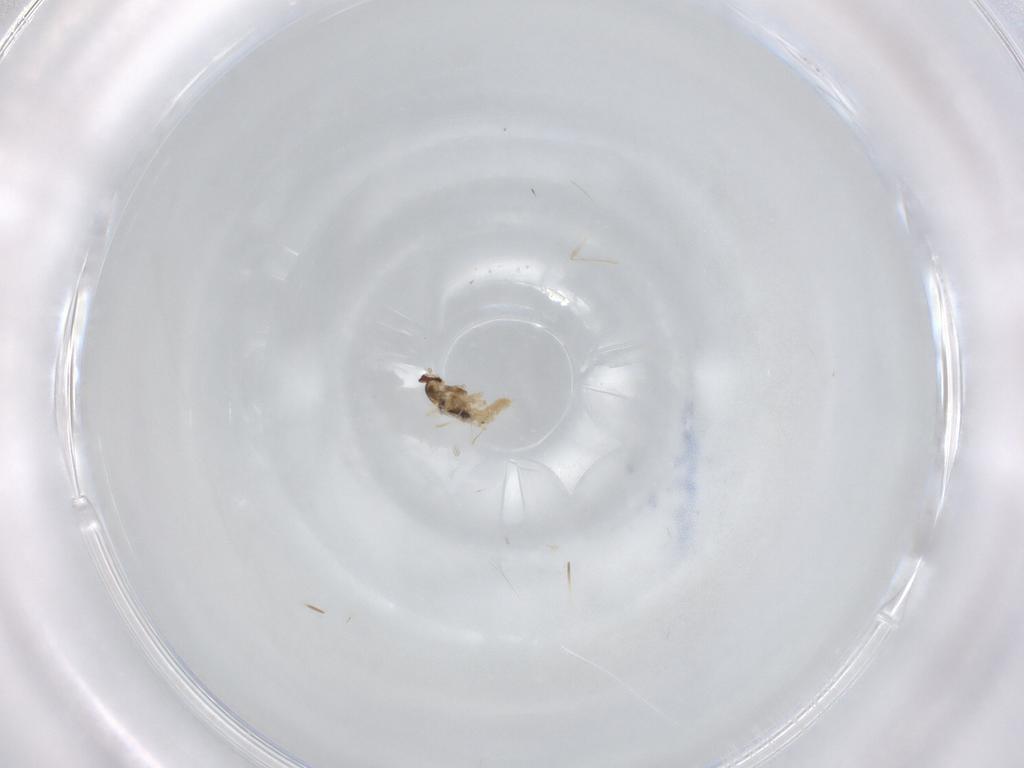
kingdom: Animalia
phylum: Arthropoda
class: Insecta
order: Diptera
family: Cecidomyiidae
